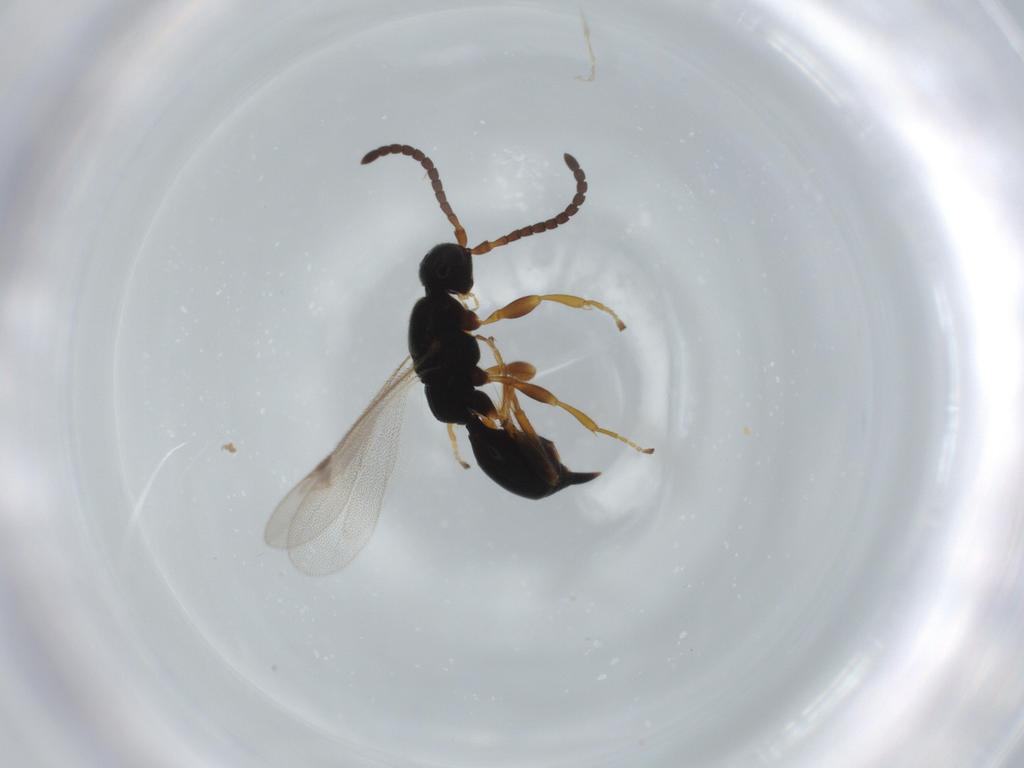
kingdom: Animalia
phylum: Arthropoda
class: Insecta
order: Hymenoptera
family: Proctotrupidae
